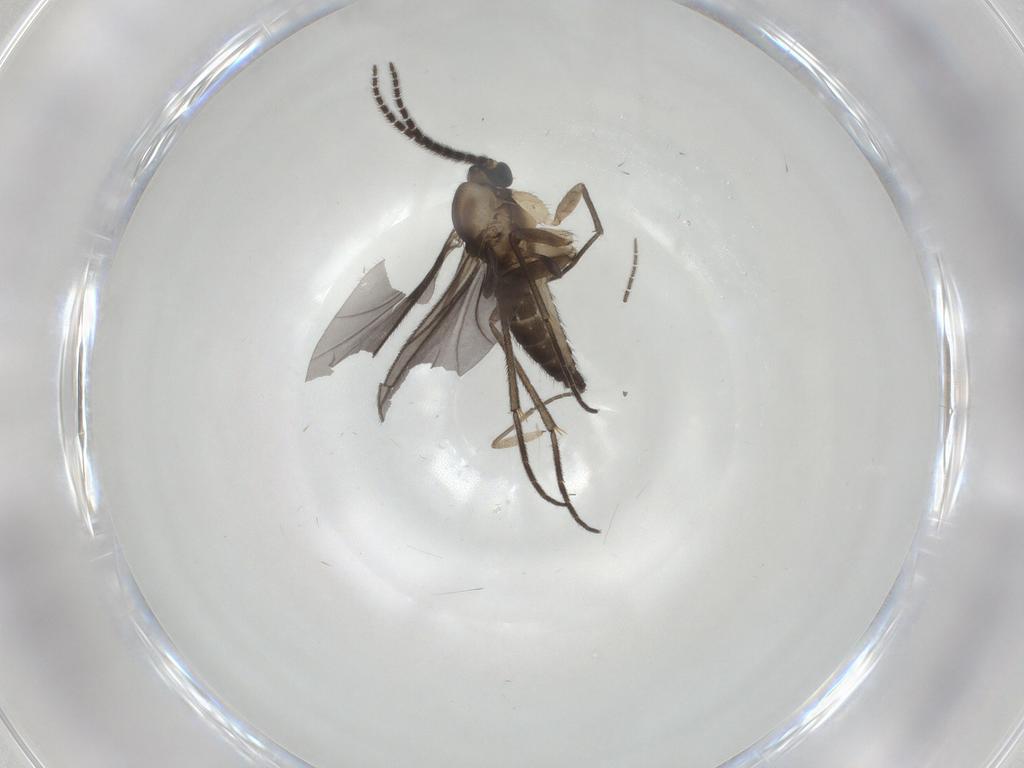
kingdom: Animalia
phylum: Arthropoda
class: Insecta
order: Diptera
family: Sciaridae
